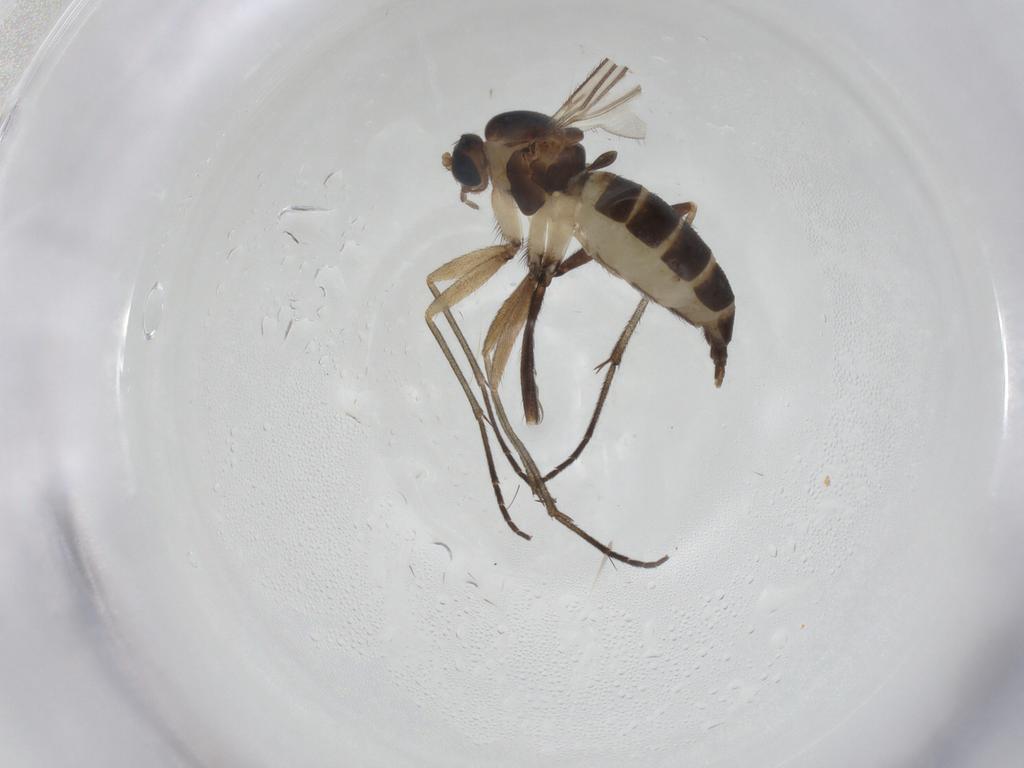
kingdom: Animalia
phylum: Arthropoda
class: Insecta
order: Diptera
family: Sciaridae
